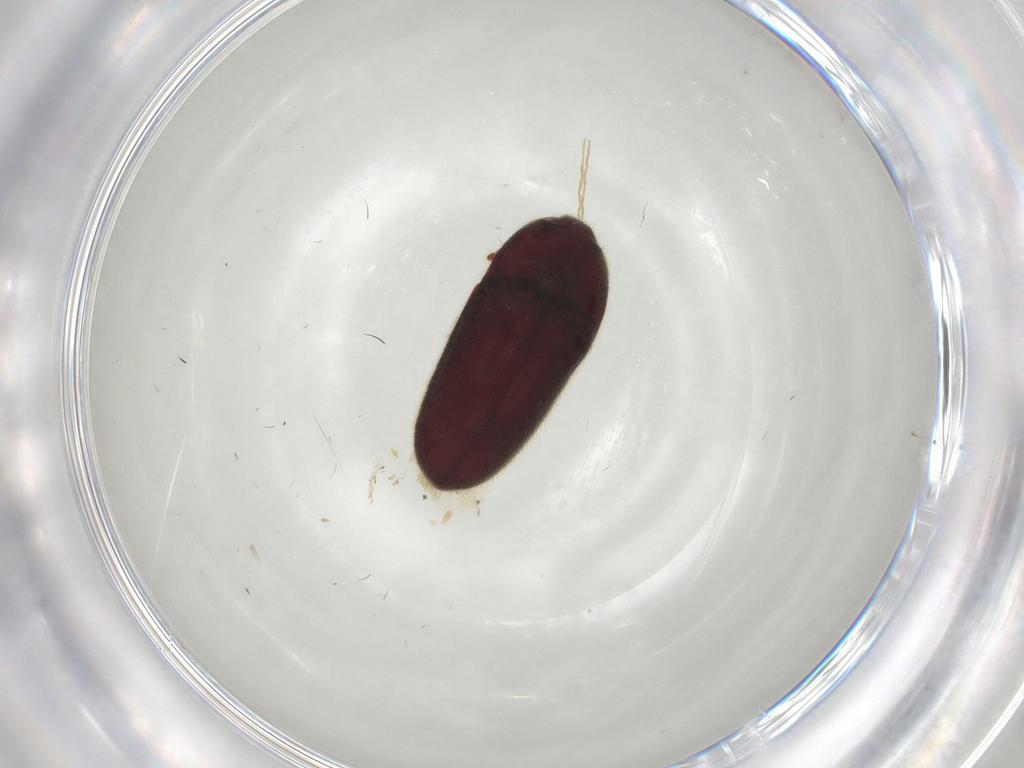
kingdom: Animalia
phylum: Arthropoda
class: Insecta
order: Coleoptera
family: Throscidae
